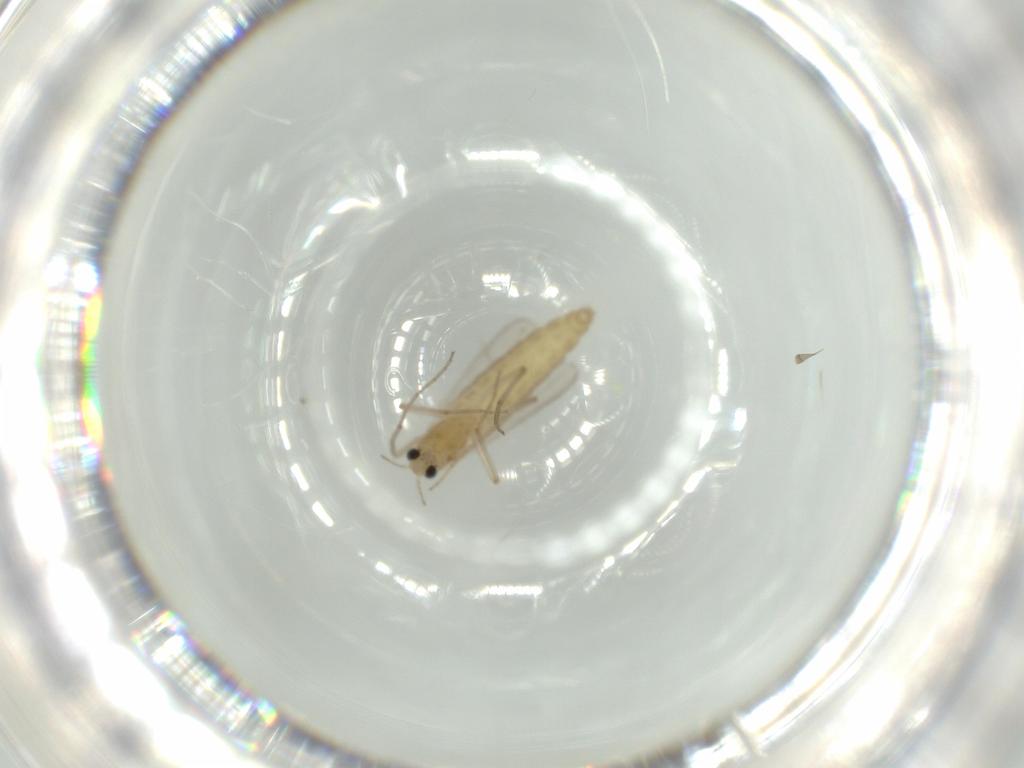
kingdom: Animalia
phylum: Arthropoda
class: Insecta
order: Diptera
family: Chironomidae
